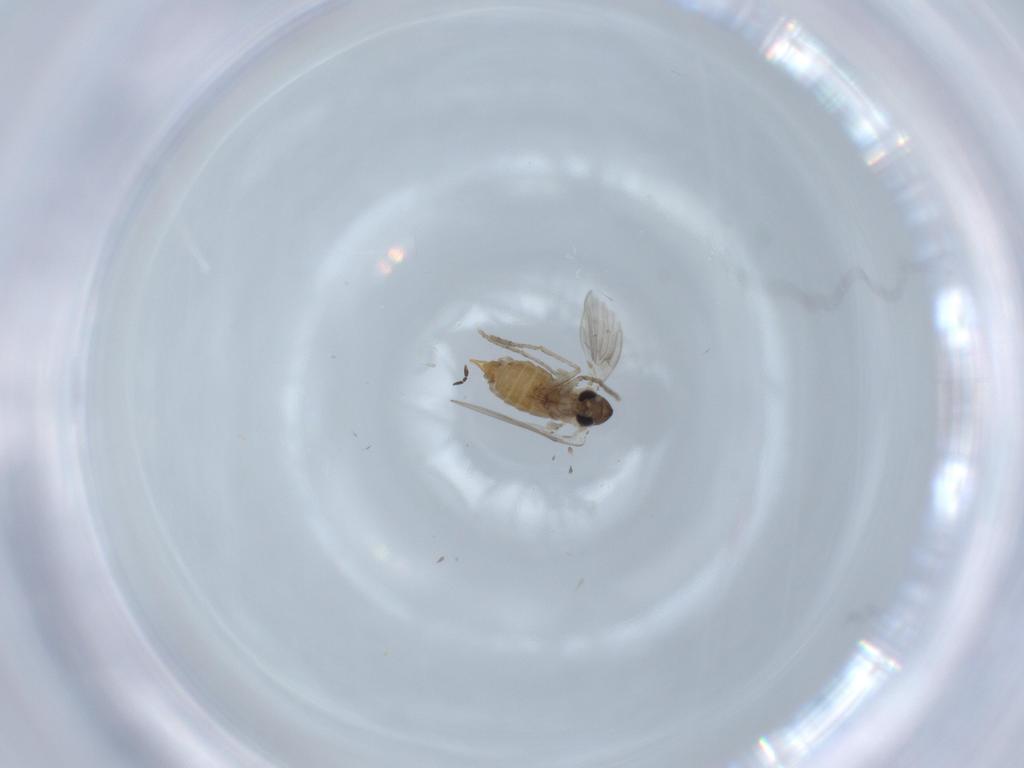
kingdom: Animalia
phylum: Arthropoda
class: Insecta
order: Diptera
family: Psychodidae
